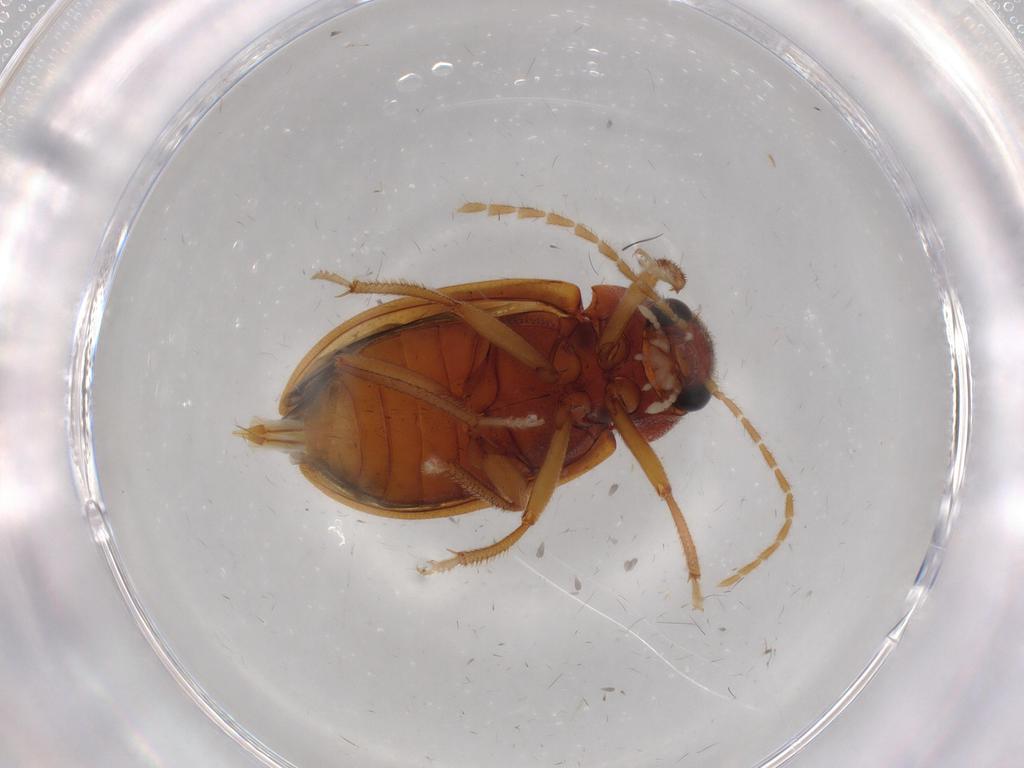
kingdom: Animalia
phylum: Arthropoda
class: Insecta
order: Coleoptera
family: Ptilodactylidae
